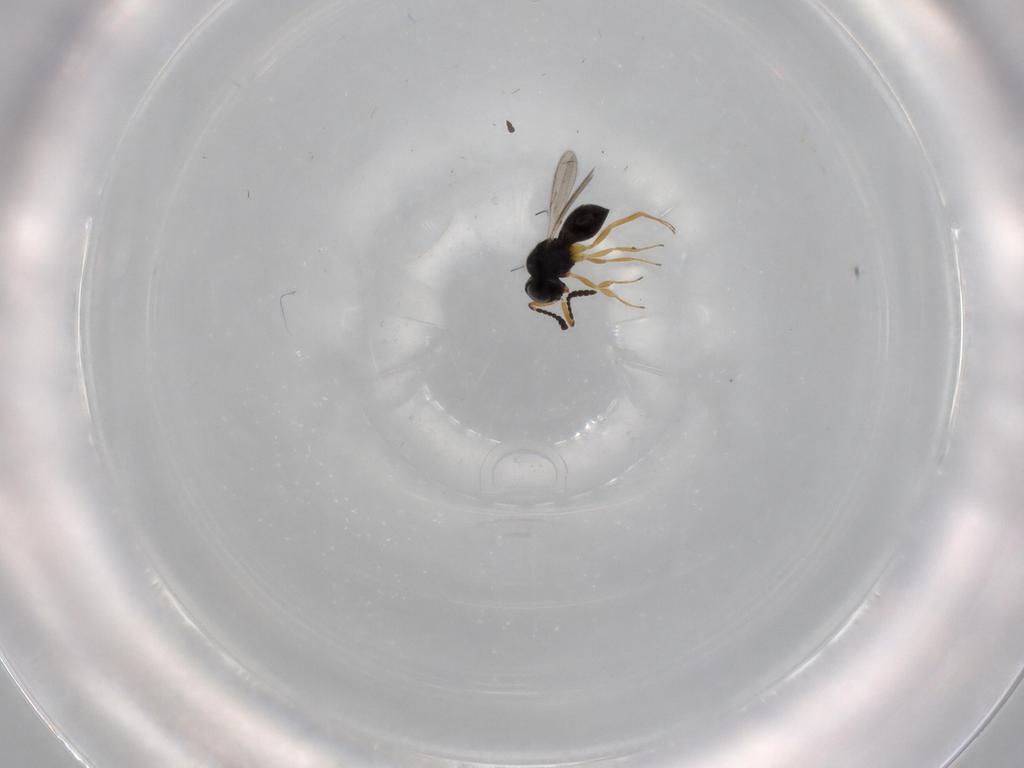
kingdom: Animalia
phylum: Arthropoda
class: Insecta
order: Hymenoptera
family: Scelionidae
